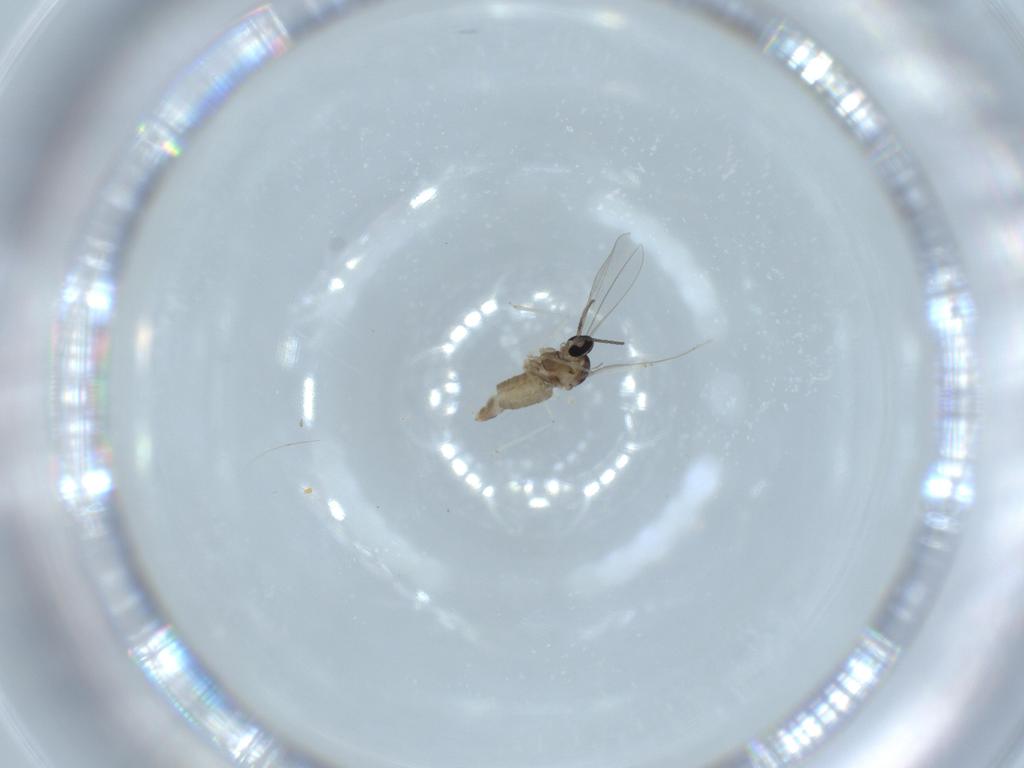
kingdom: Animalia
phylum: Arthropoda
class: Insecta
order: Diptera
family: Cecidomyiidae
